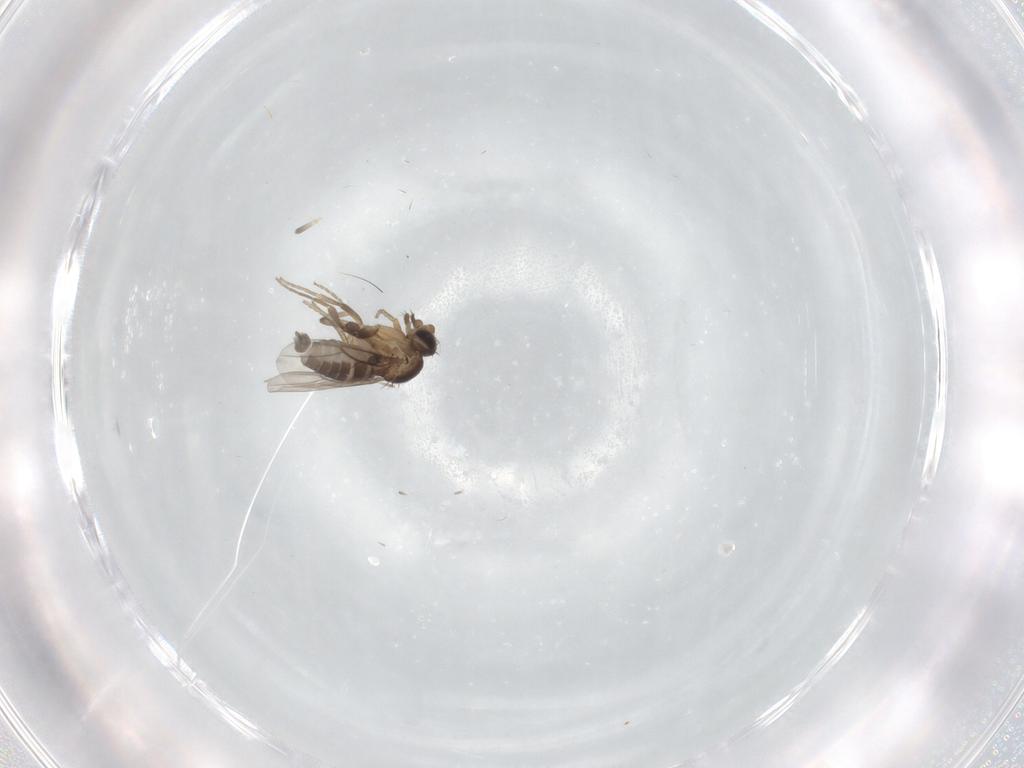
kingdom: Animalia
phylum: Arthropoda
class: Insecta
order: Diptera
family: Phoridae
